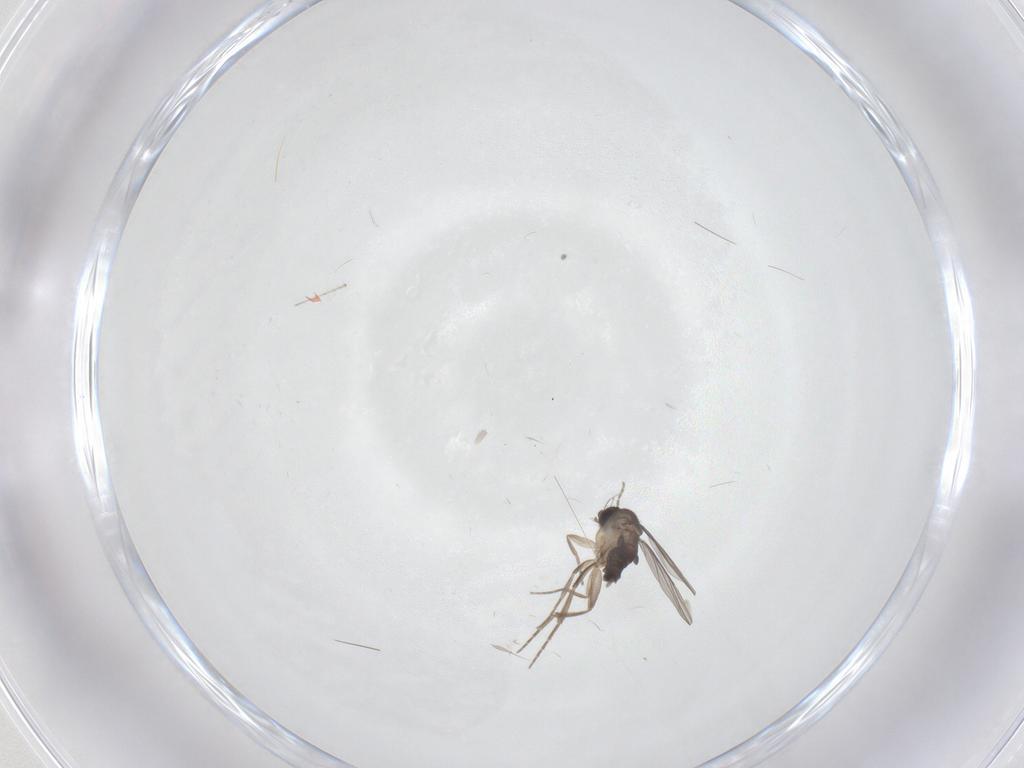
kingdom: Animalia
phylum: Arthropoda
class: Insecta
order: Diptera
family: Phoridae
